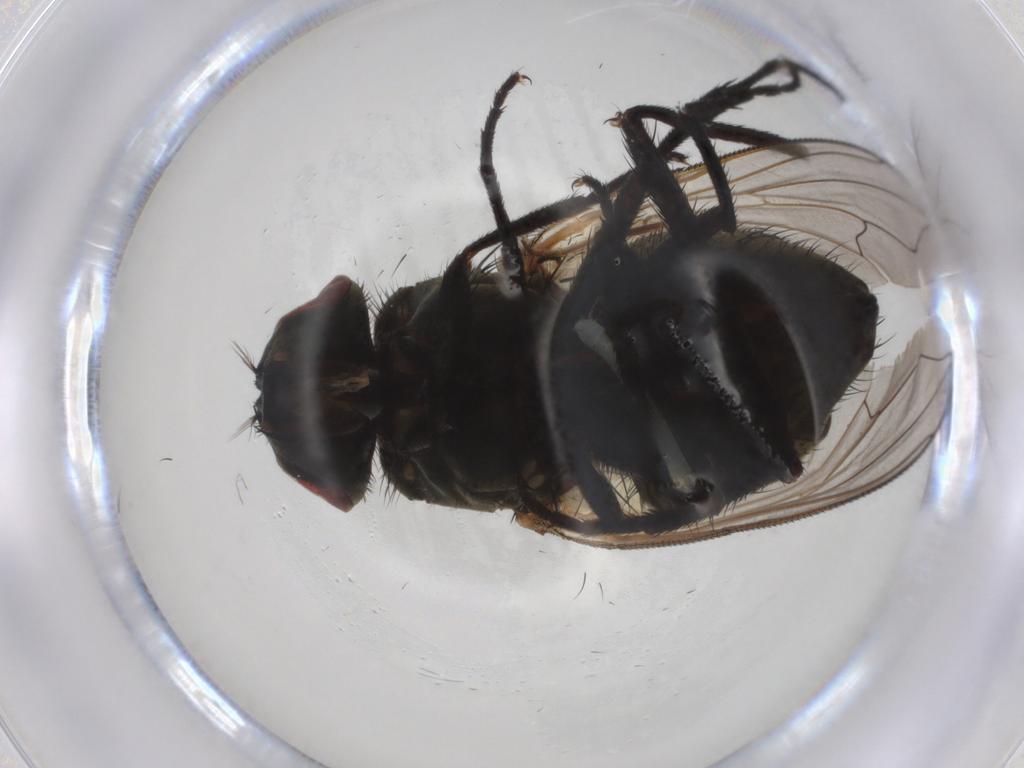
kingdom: Animalia
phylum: Arthropoda
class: Insecta
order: Diptera
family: Muscidae
